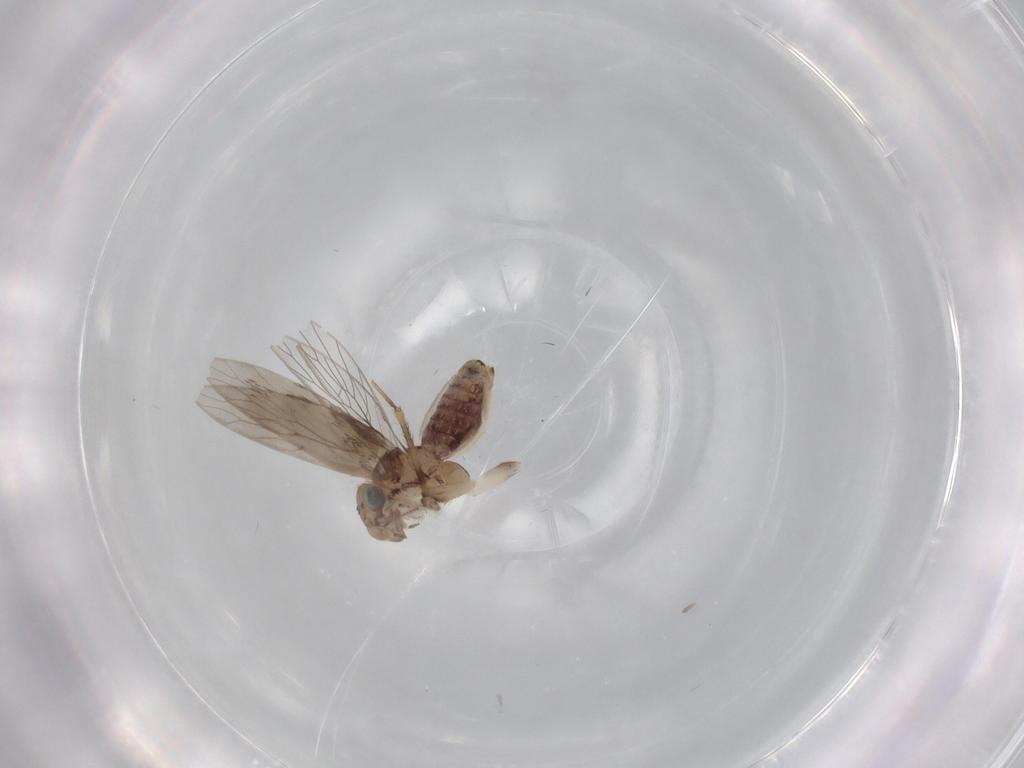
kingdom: Animalia
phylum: Arthropoda
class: Insecta
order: Psocodea
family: Lepidopsocidae
